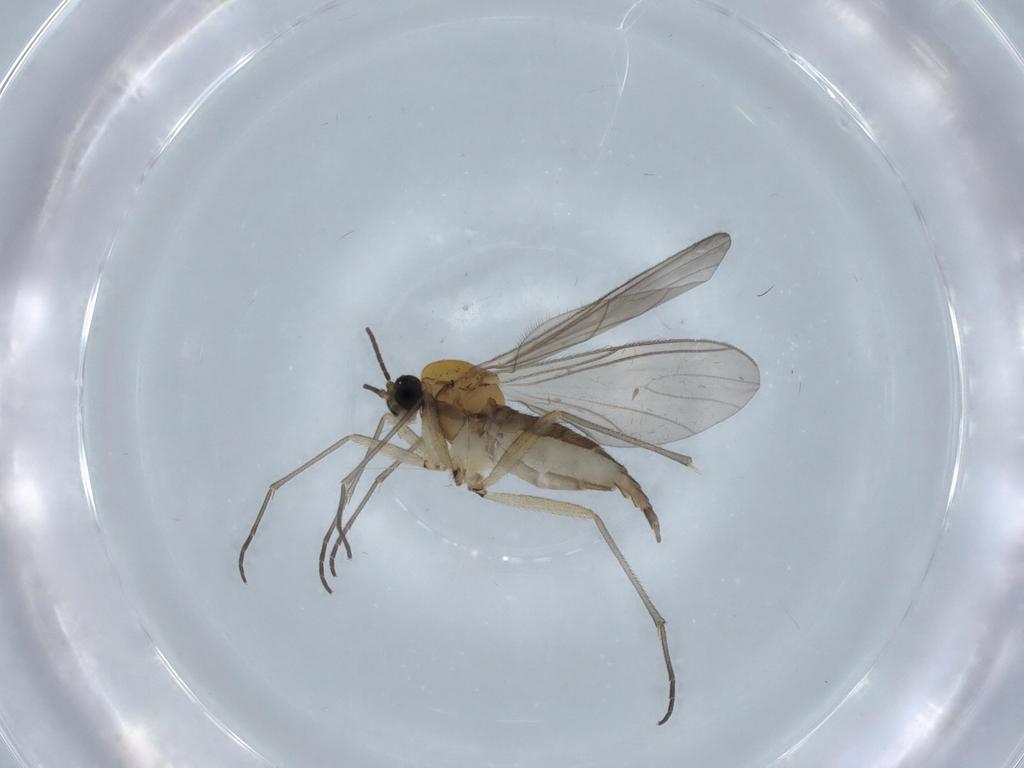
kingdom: Animalia
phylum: Arthropoda
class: Insecta
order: Diptera
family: Sciaridae
